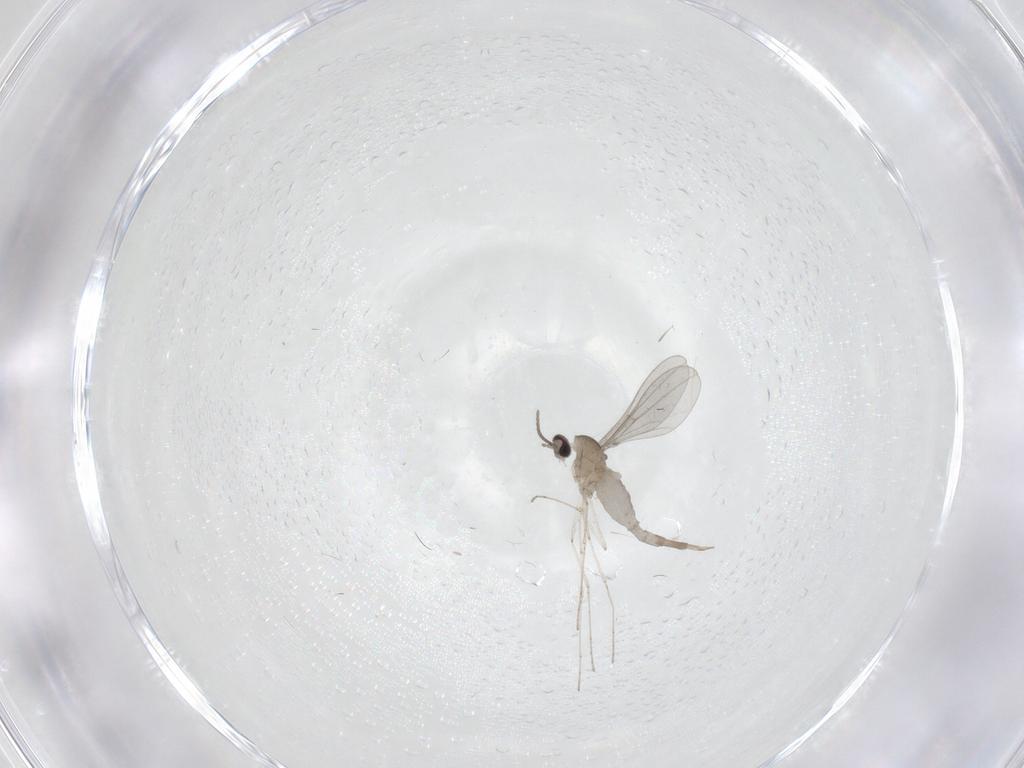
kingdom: Animalia
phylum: Arthropoda
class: Insecta
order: Diptera
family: Cecidomyiidae
